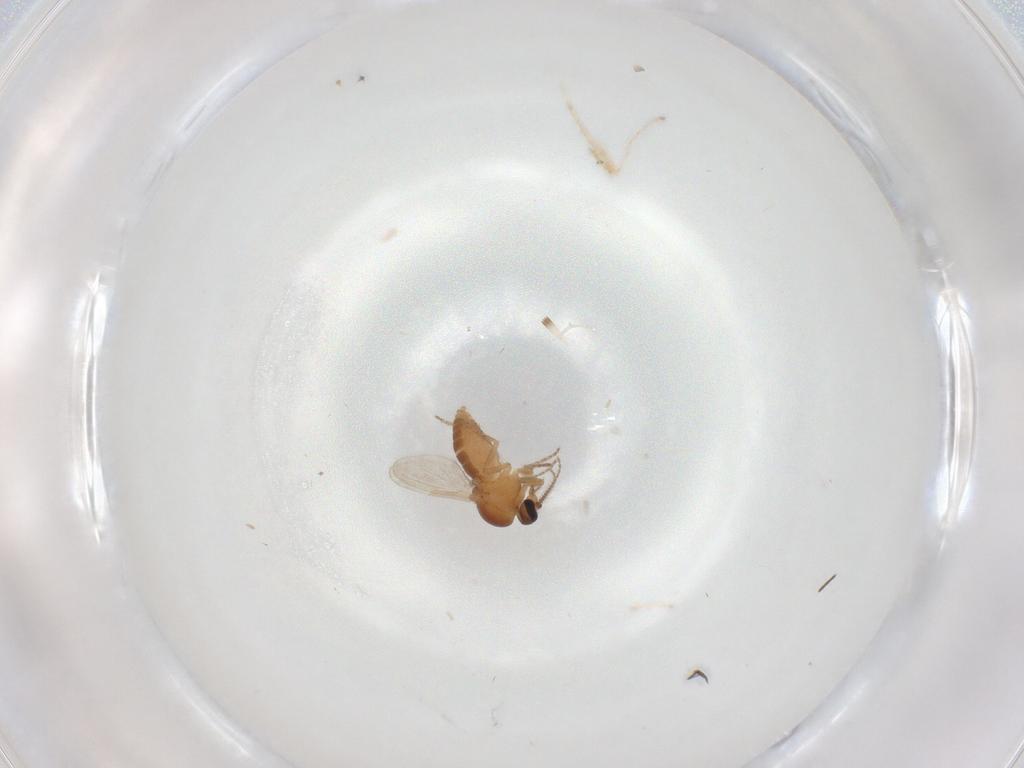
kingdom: Animalia
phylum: Arthropoda
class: Insecta
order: Diptera
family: Ceratopogonidae
